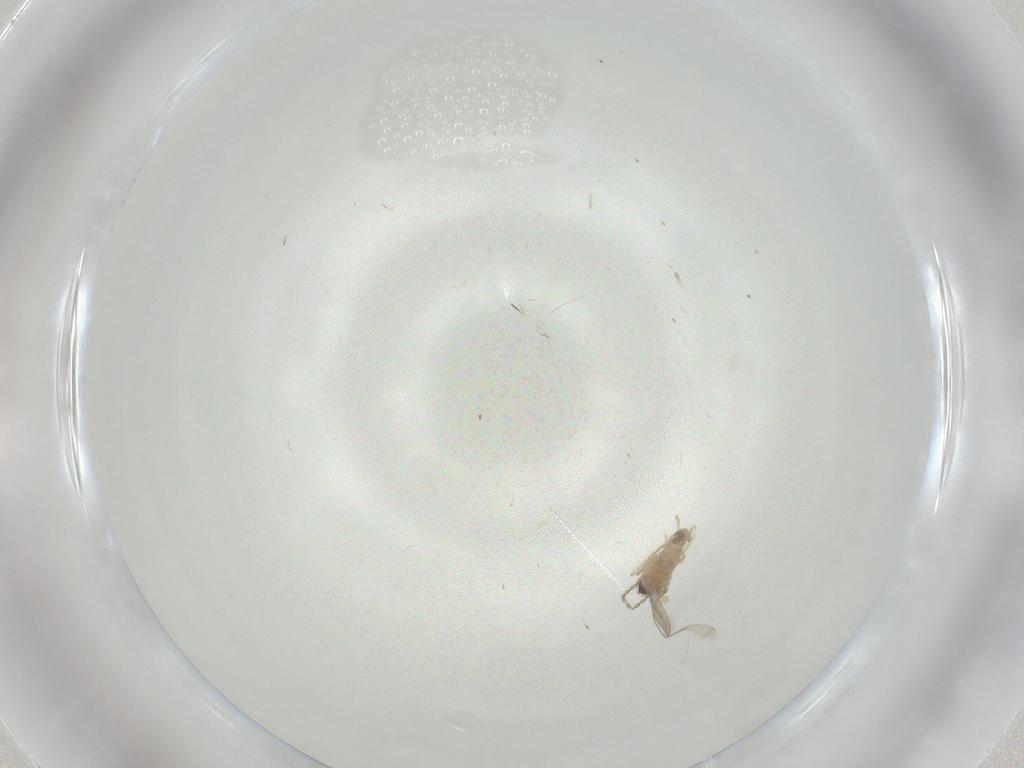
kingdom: Animalia
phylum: Arthropoda
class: Insecta
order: Diptera
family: Cecidomyiidae
